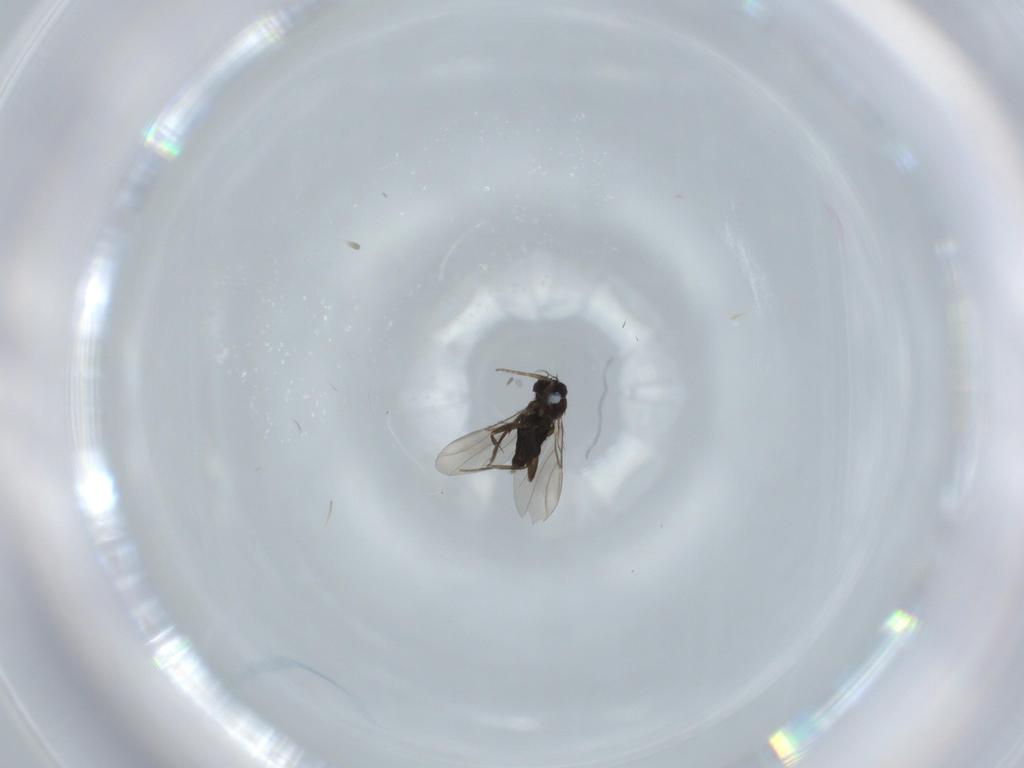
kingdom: Animalia
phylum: Arthropoda
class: Insecta
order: Diptera
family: Phoridae
